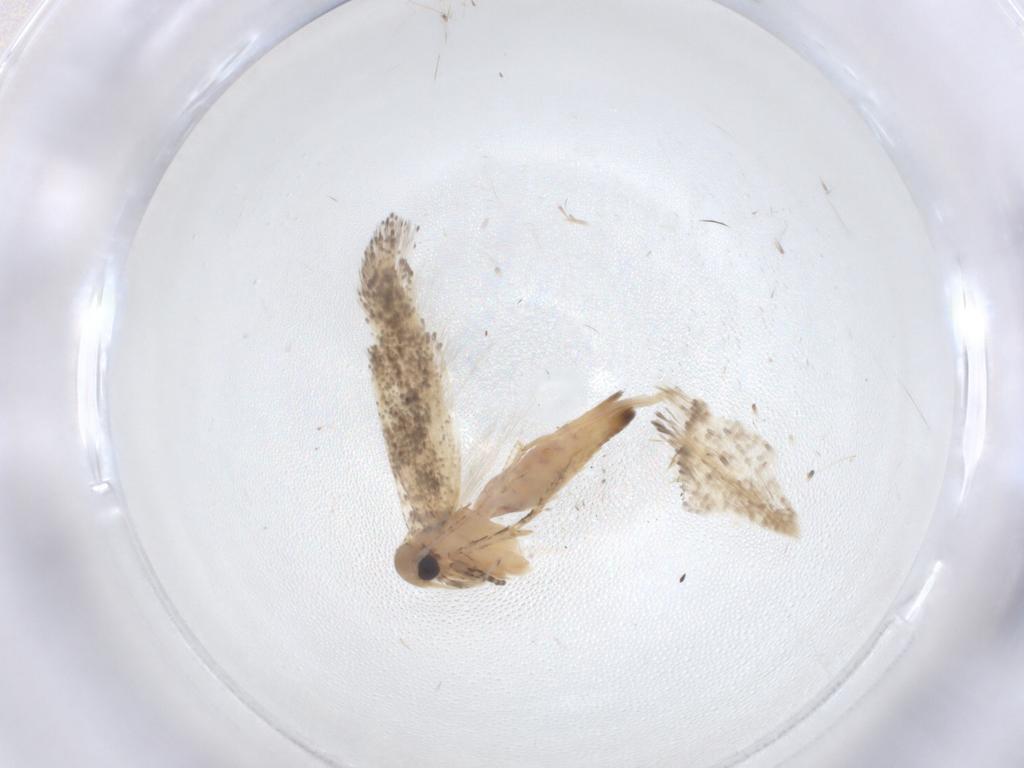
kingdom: Animalia
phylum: Arthropoda
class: Insecta
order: Lepidoptera
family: Gelechiidae
